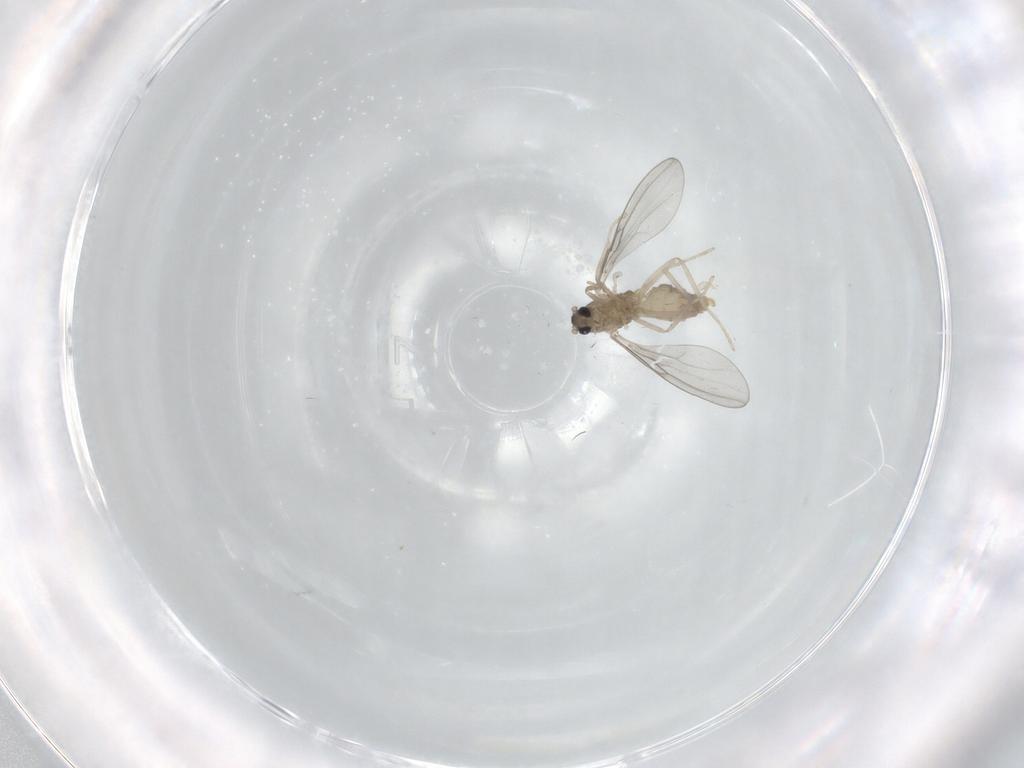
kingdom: Animalia
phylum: Arthropoda
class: Insecta
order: Diptera
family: Cecidomyiidae
